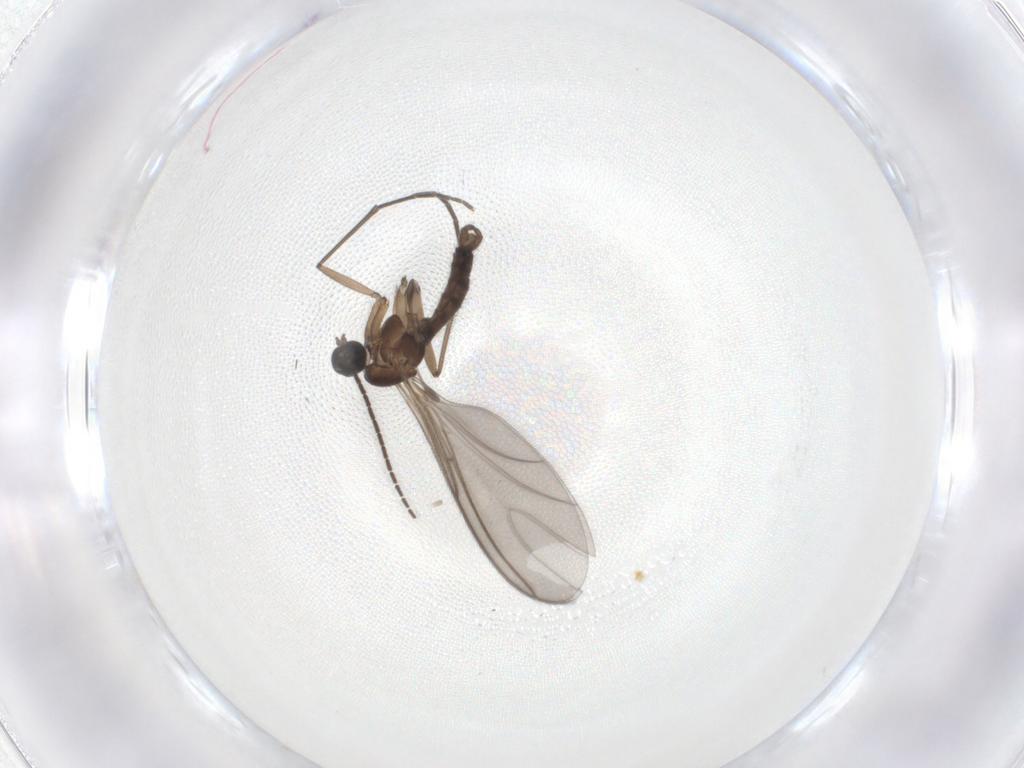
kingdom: Animalia
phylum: Arthropoda
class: Insecta
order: Diptera
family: Sciaridae
